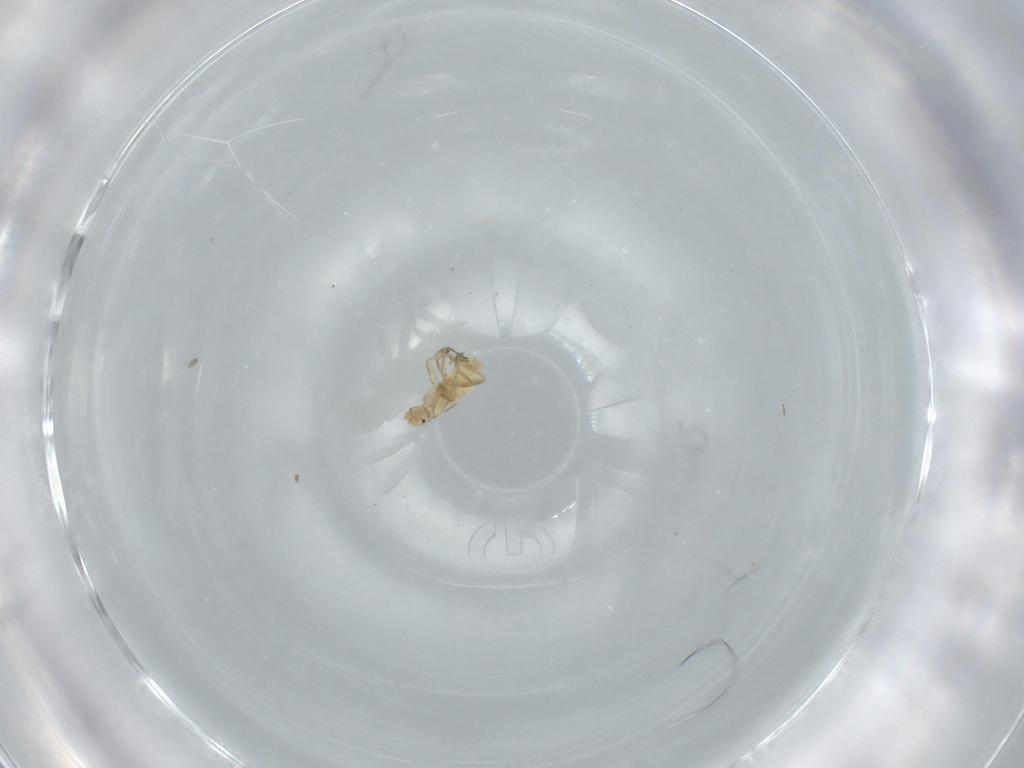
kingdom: Animalia
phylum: Arthropoda
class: Insecta
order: Diptera
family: Phoridae
